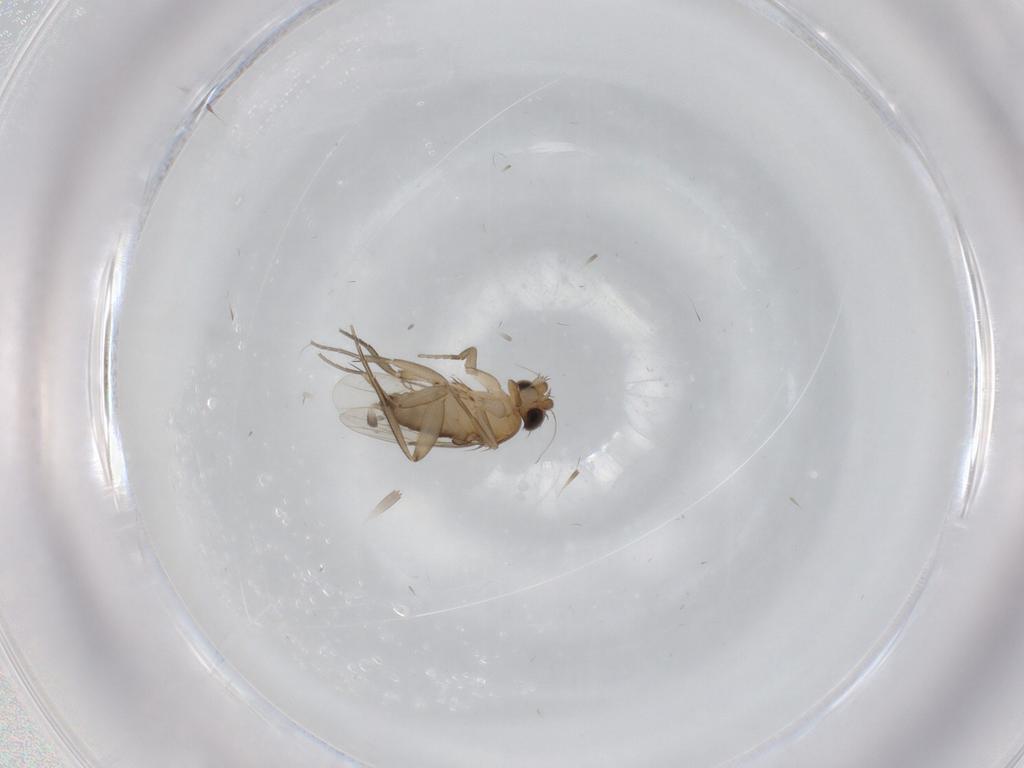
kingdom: Animalia
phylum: Arthropoda
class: Insecta
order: Diptera
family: Phoridae
